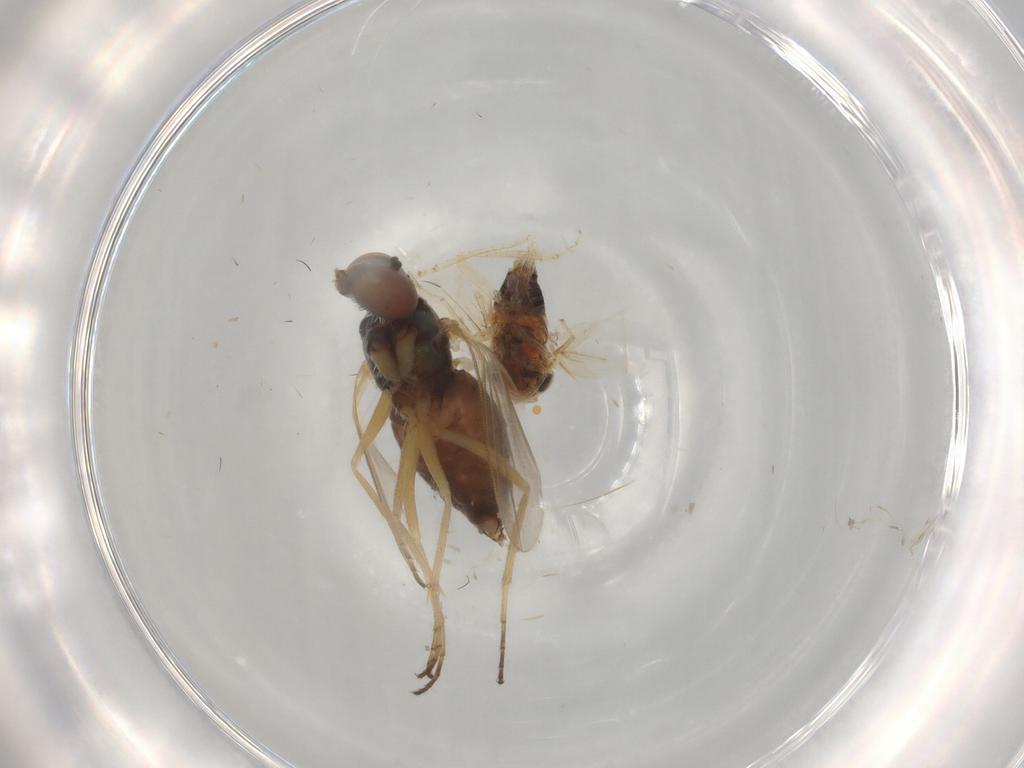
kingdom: Animalia
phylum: Arthropoda
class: Insecta
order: Diptera
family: Dolichopodidae
